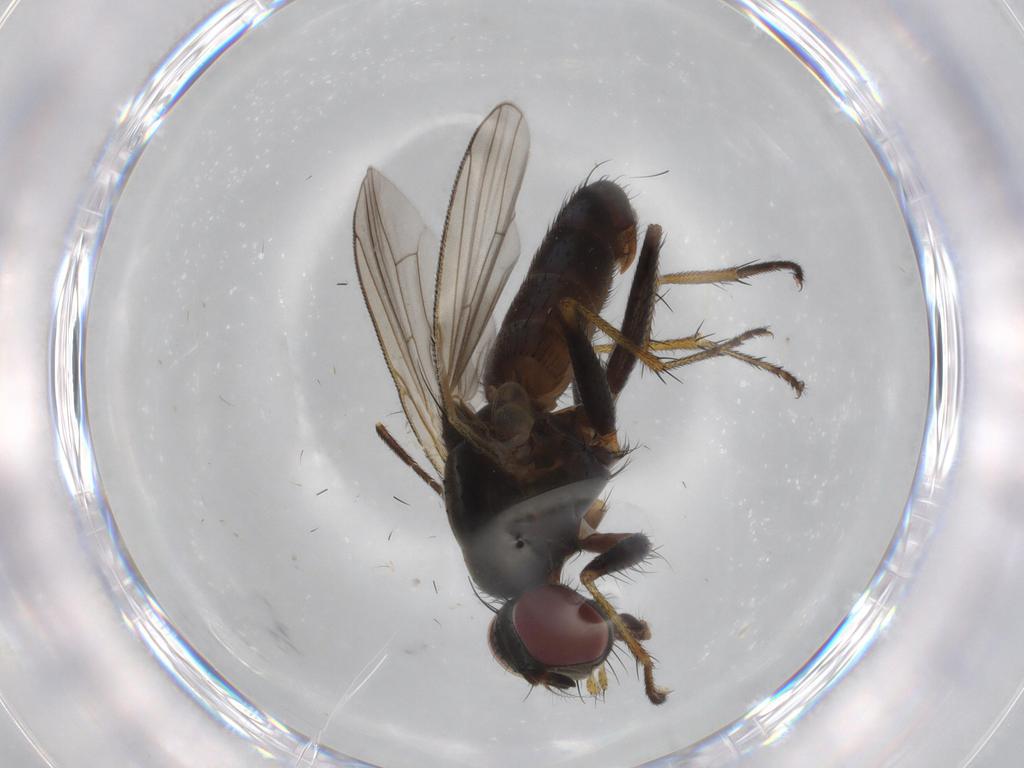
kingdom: Animalia
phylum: Arthropoda
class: Insecta
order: Diptera
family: Muscidae
